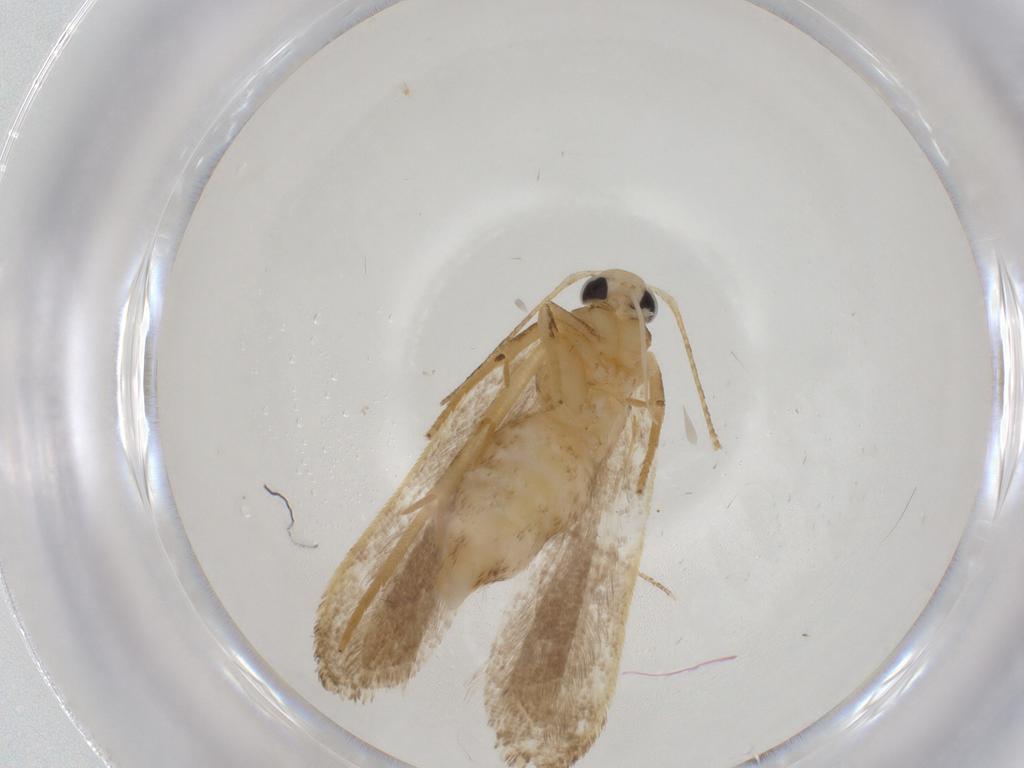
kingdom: Animalia
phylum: Arthropoda
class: Insecta
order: Lepidoptera
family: Gelechiidae
